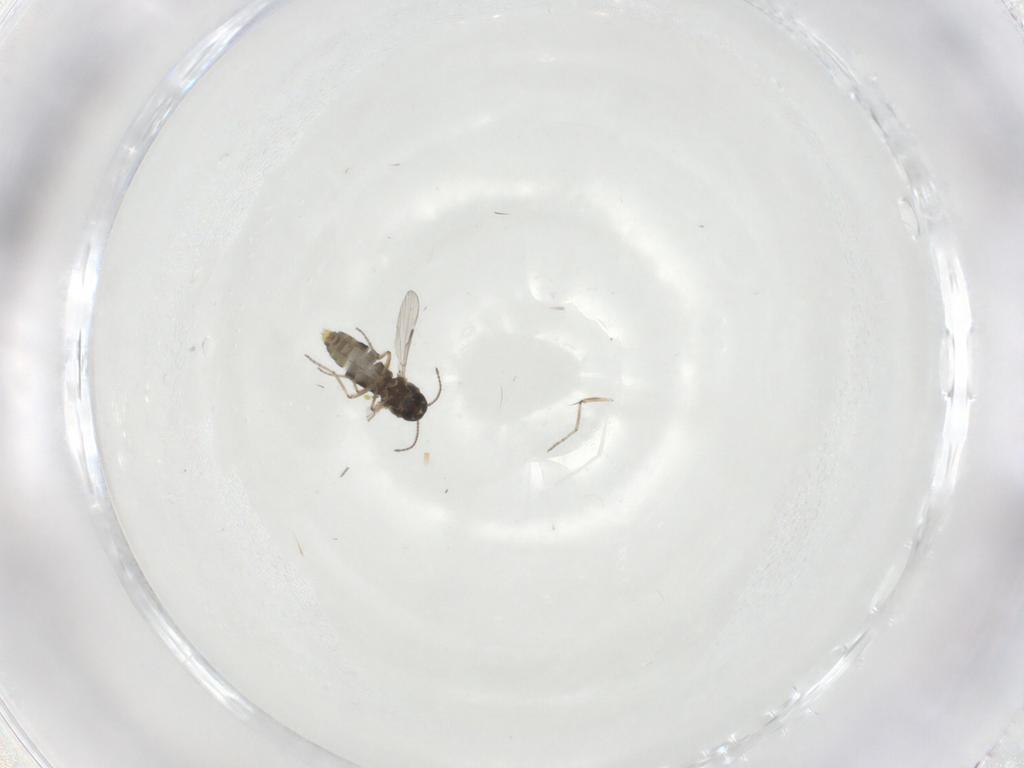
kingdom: Animalia
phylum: Arthropoda
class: Insecta
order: Diptera
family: Ceratopogonidae
